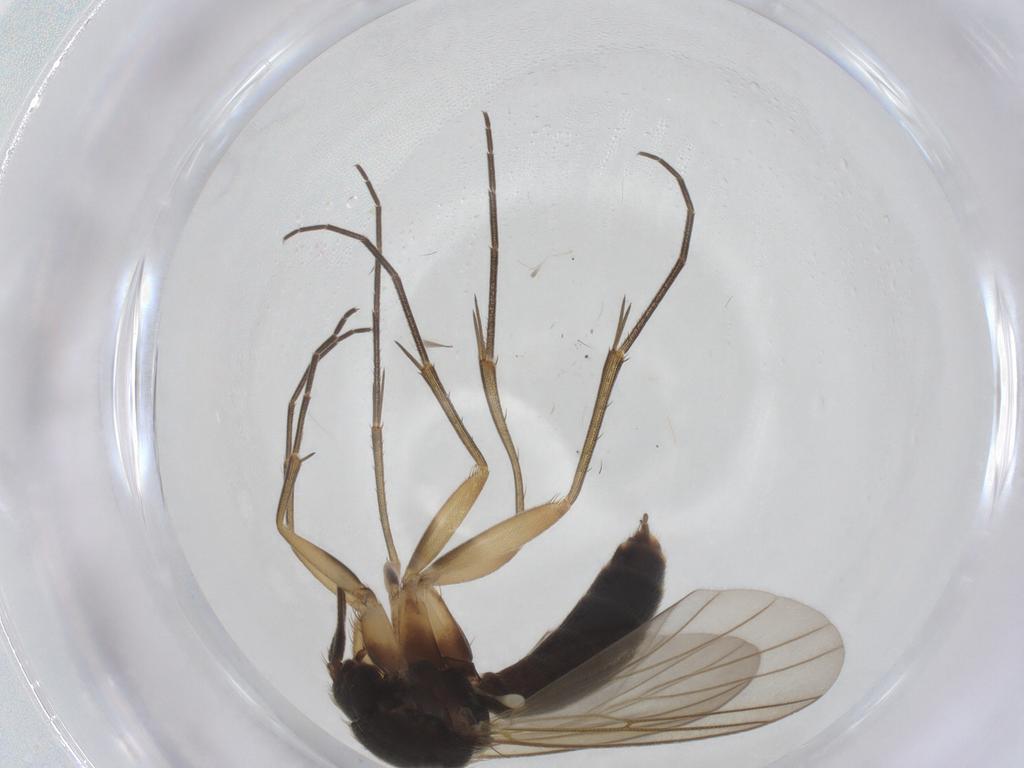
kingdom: Animalia
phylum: Arthropoda
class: Insecta
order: Diptera
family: Mycetophilidae
